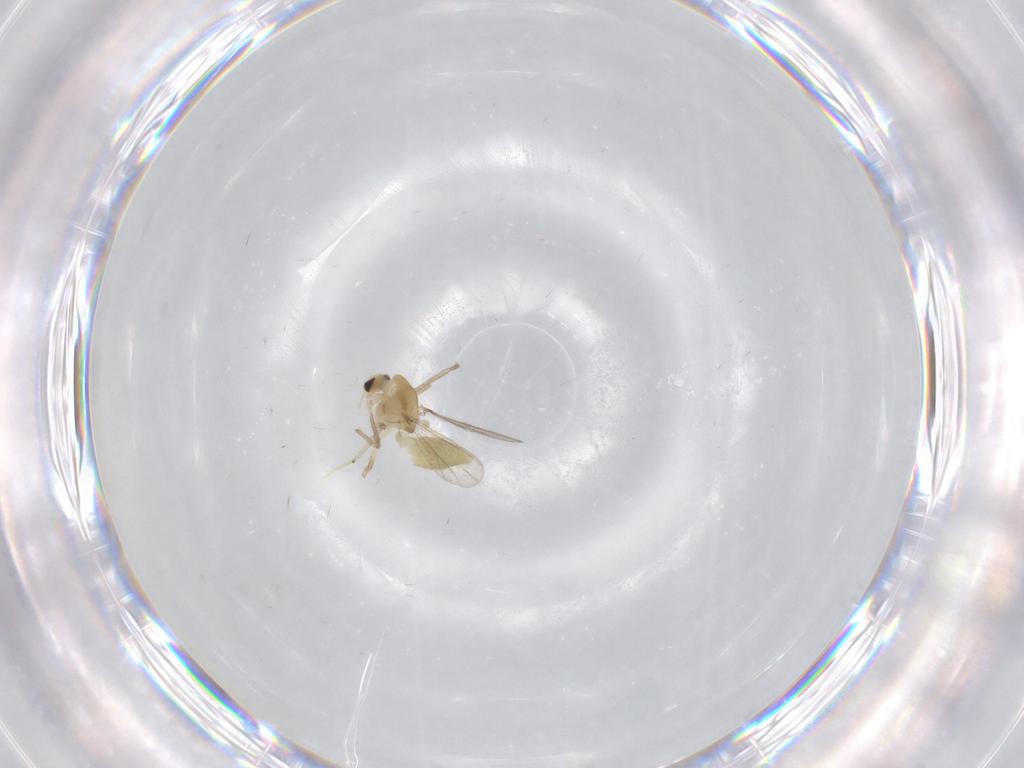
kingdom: Animalia
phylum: Arthropoda
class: Insecta
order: Diptera
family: Chironomidae
